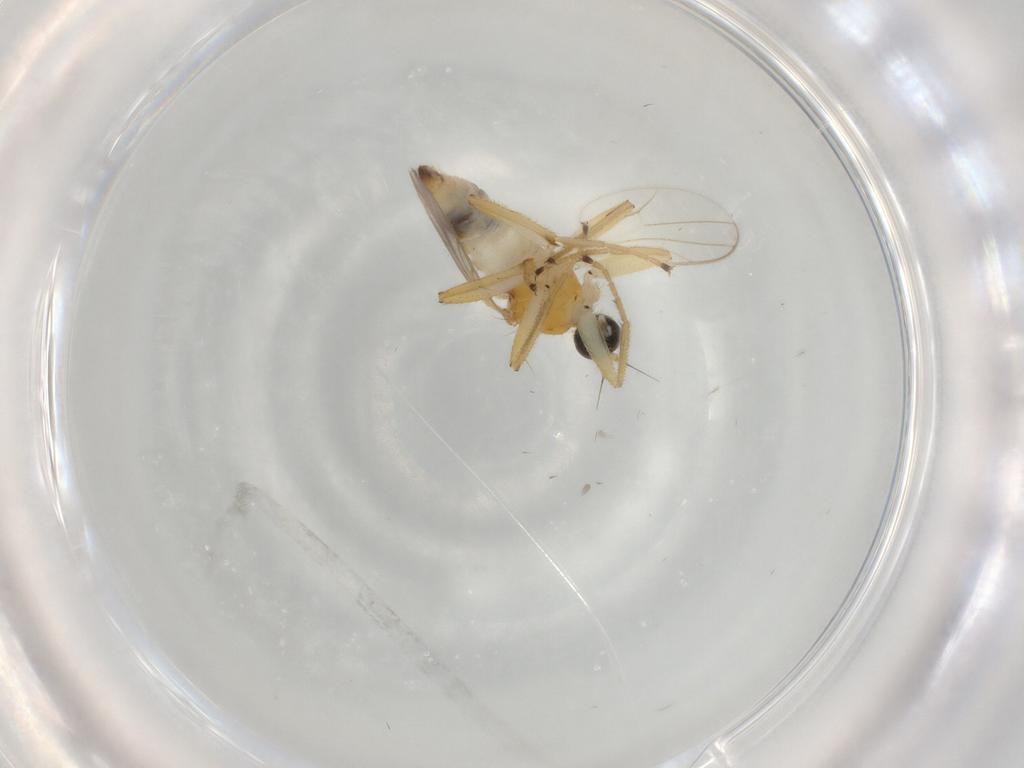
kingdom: Animalia
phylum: Arthropoda
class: Insecta
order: Diptera
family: Hybotidae
